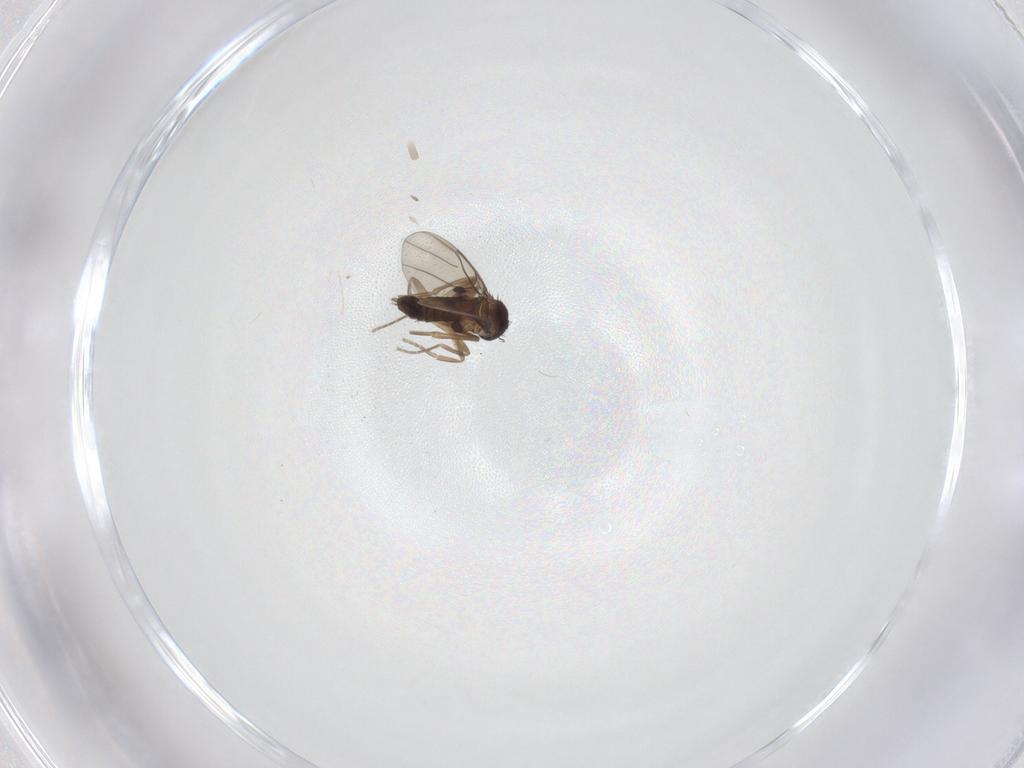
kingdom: Animalia
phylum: Arthropoda
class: Insecta
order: Diptera
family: Phoridae
